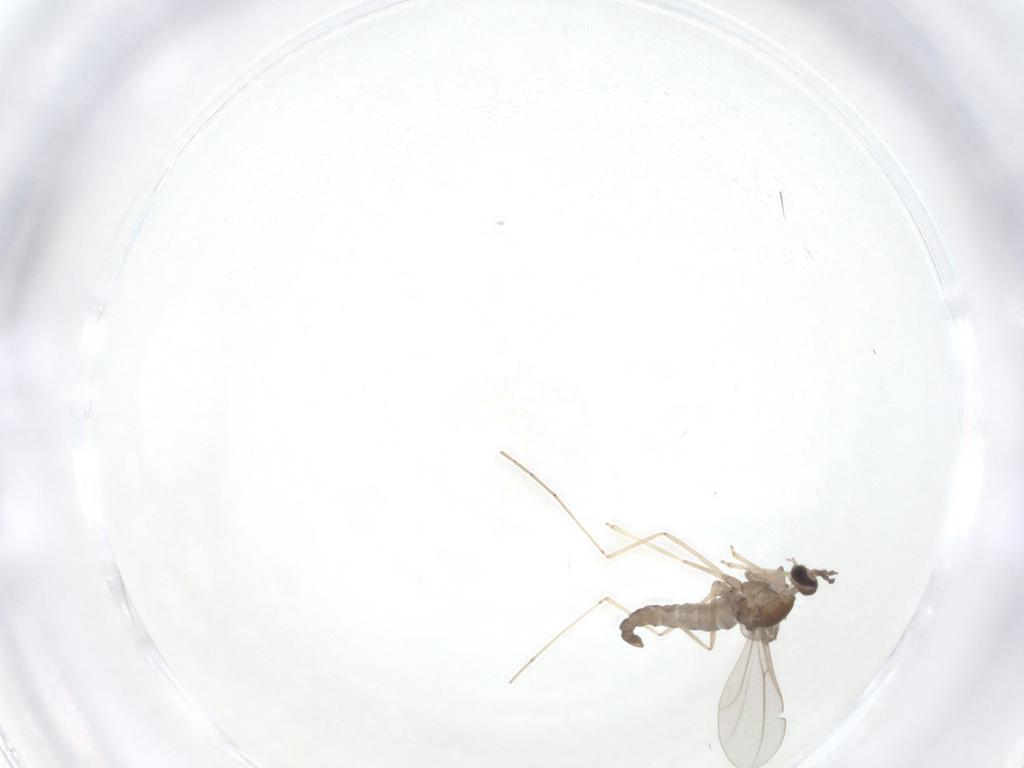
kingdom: Animalia
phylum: Arthropoda
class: Insecta
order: Diptera
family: Cecidomyiidae
